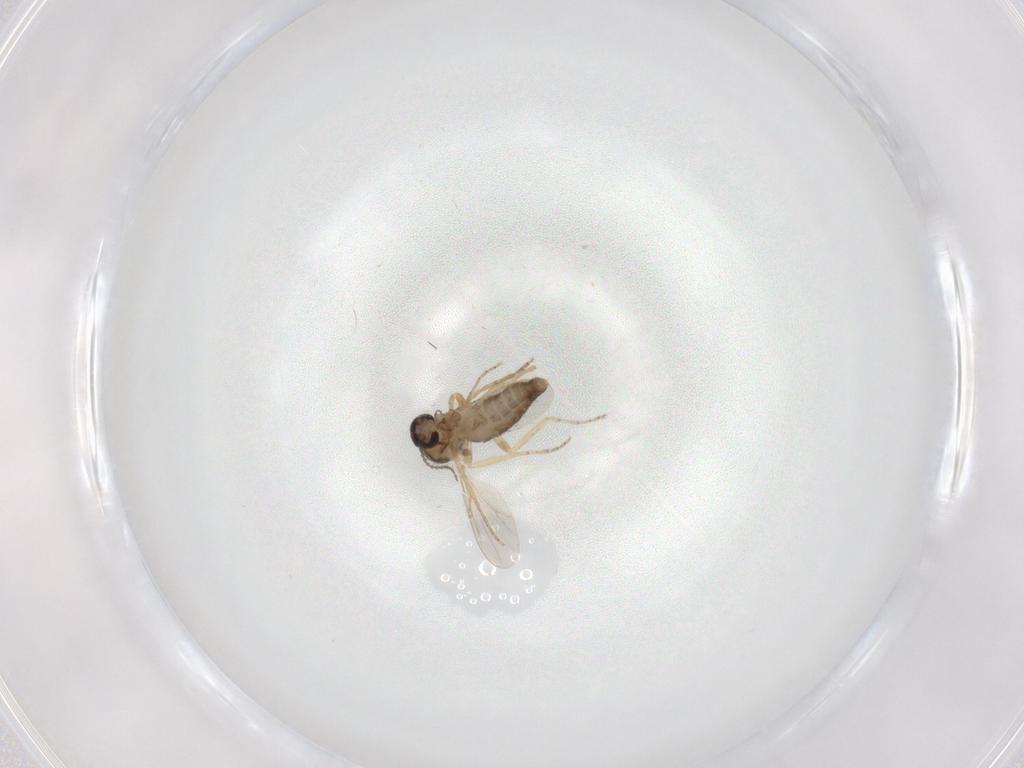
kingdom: Animalia
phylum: Arthropoda
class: Insecta
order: Diptera
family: Ceratopogonidae
